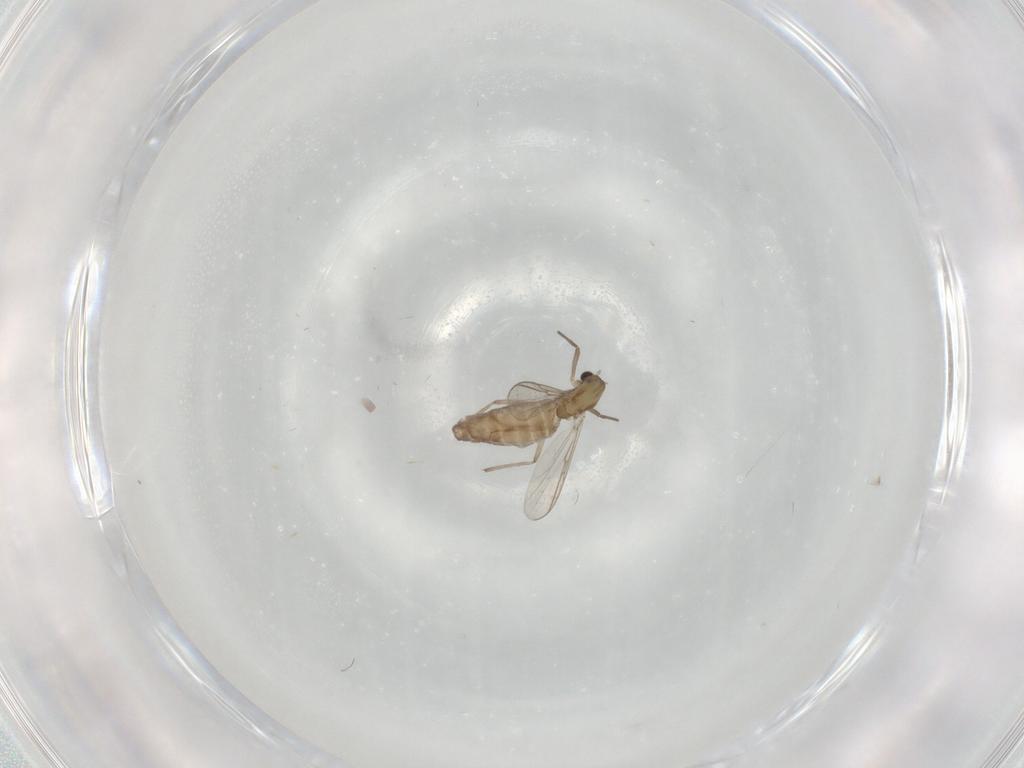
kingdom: Animalia
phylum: Arthropoda
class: Insecta
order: Diptera
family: Chironomidae
